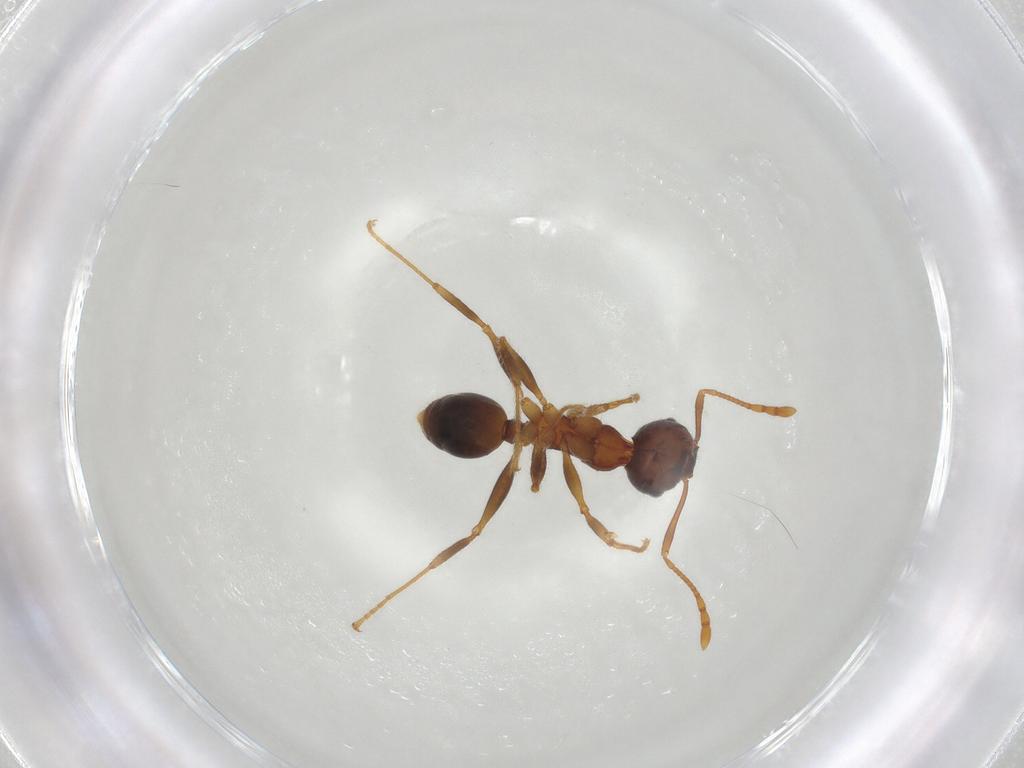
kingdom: Animalia
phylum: Arthropoda
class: Insecta
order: Hymenoptera
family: Formicidae
